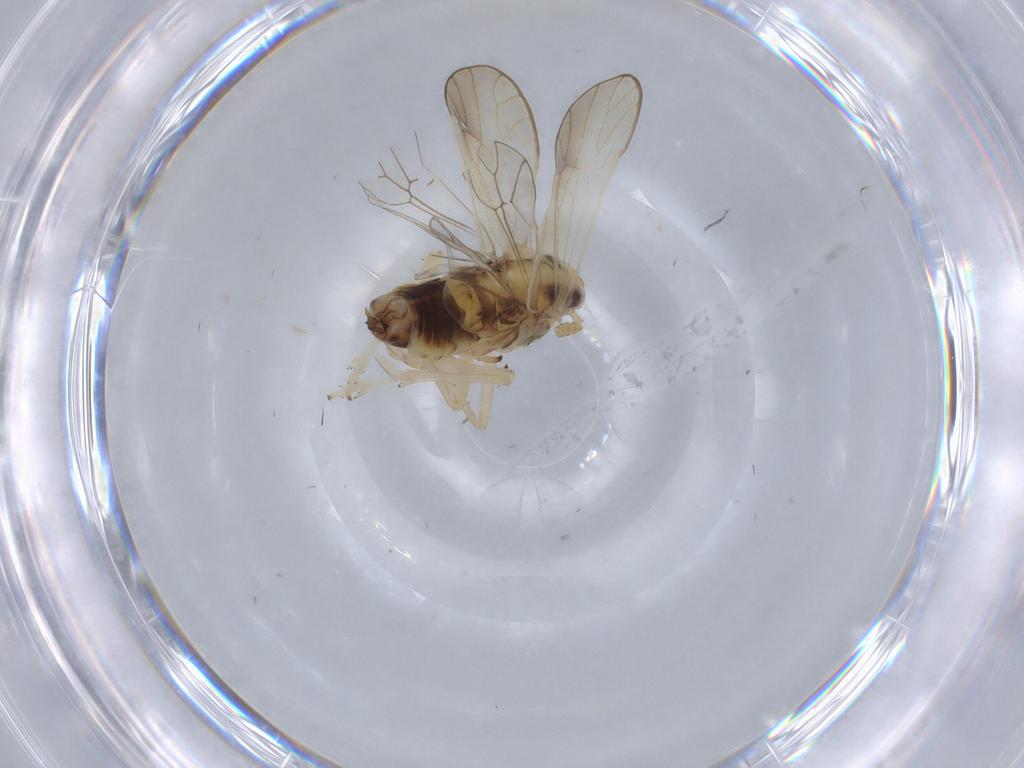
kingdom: Animalia
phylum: Arthropoda
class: Insecta
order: Hemiptera
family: Delphacidae
